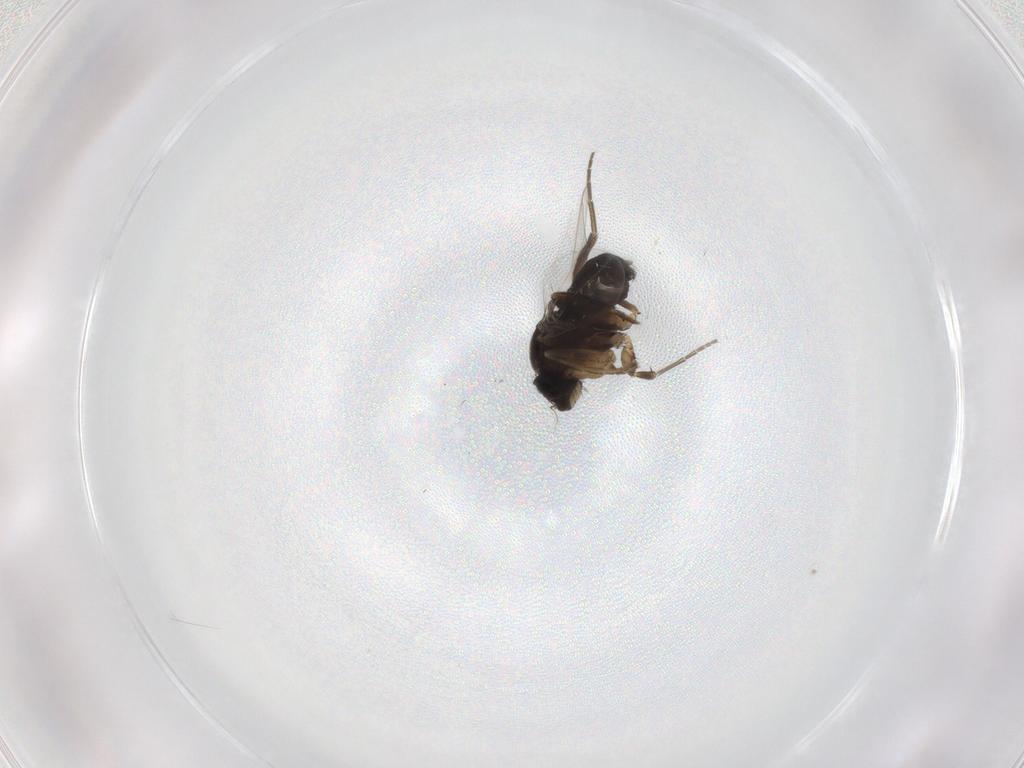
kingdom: Animalia
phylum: Arthropoda
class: Insecta
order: Diptera
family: Phoridae
